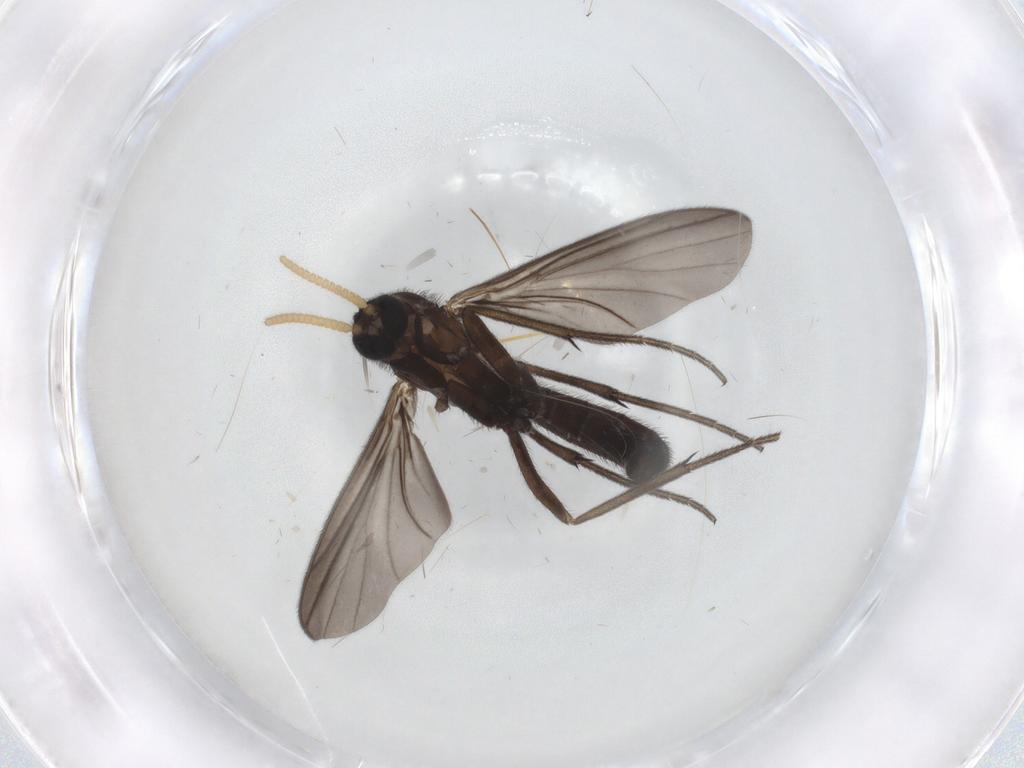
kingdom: Animalia
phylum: Arthropoda
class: Insecta
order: Diptera
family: Mycetophilidae
